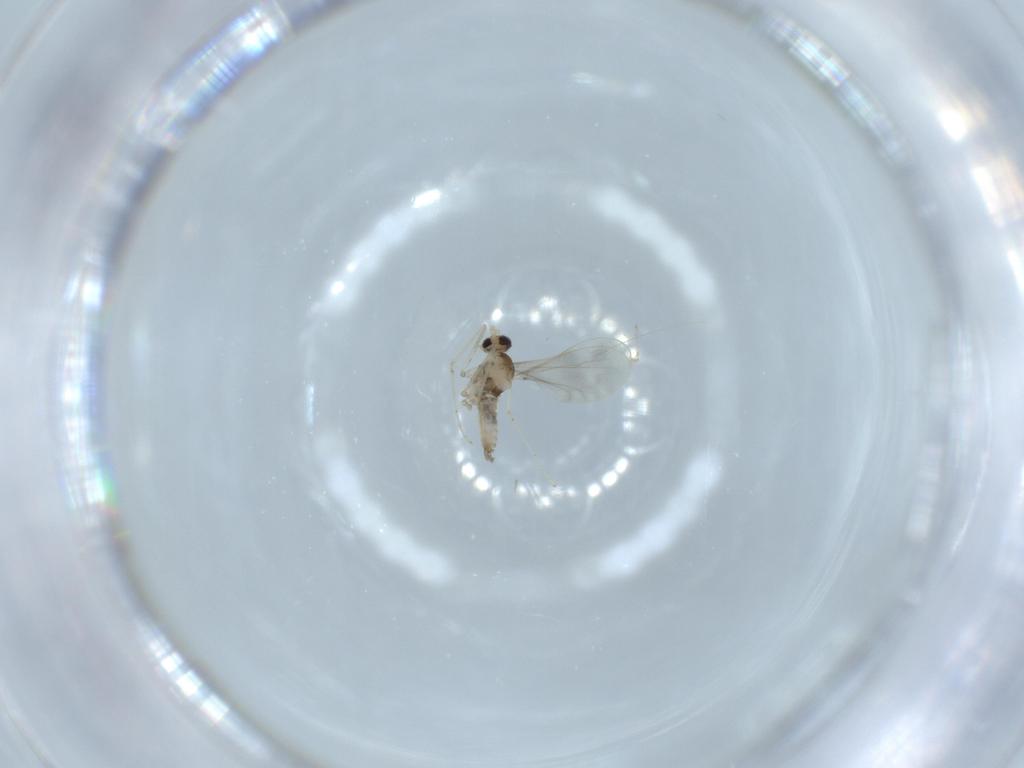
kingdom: Animalia
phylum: Arthropoda
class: Insecta
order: Diptera
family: Cecidomyiidae
